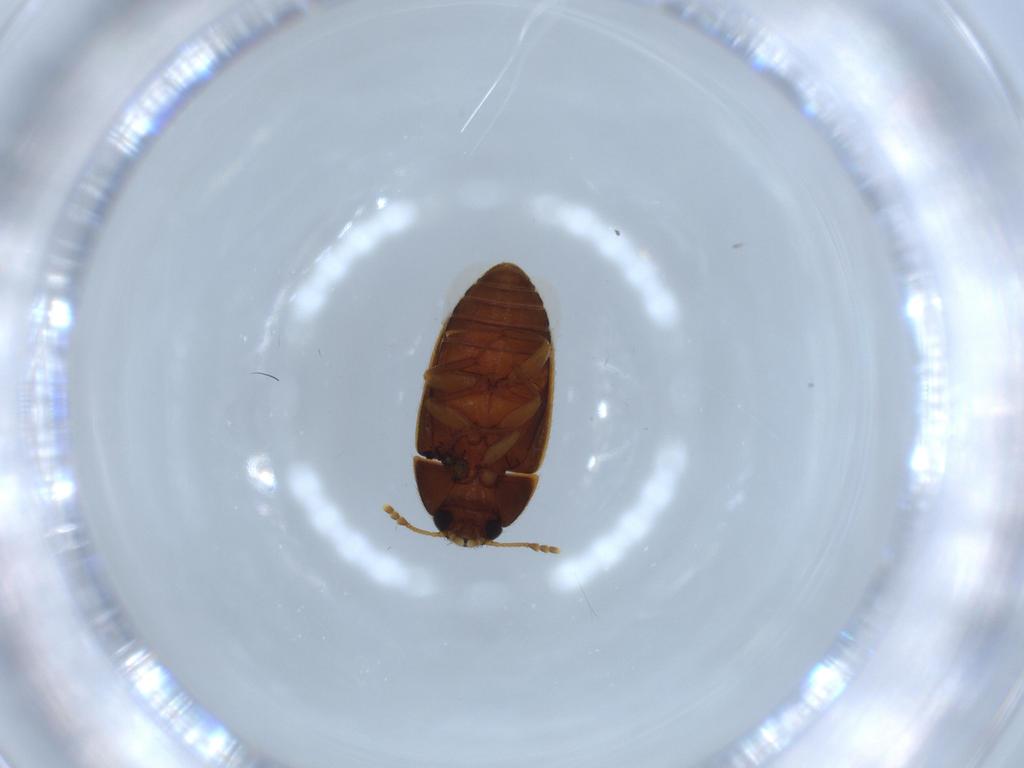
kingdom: Animalia
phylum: Arthropoda
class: Insecta
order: Coleoptera
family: Mycetophagidae
